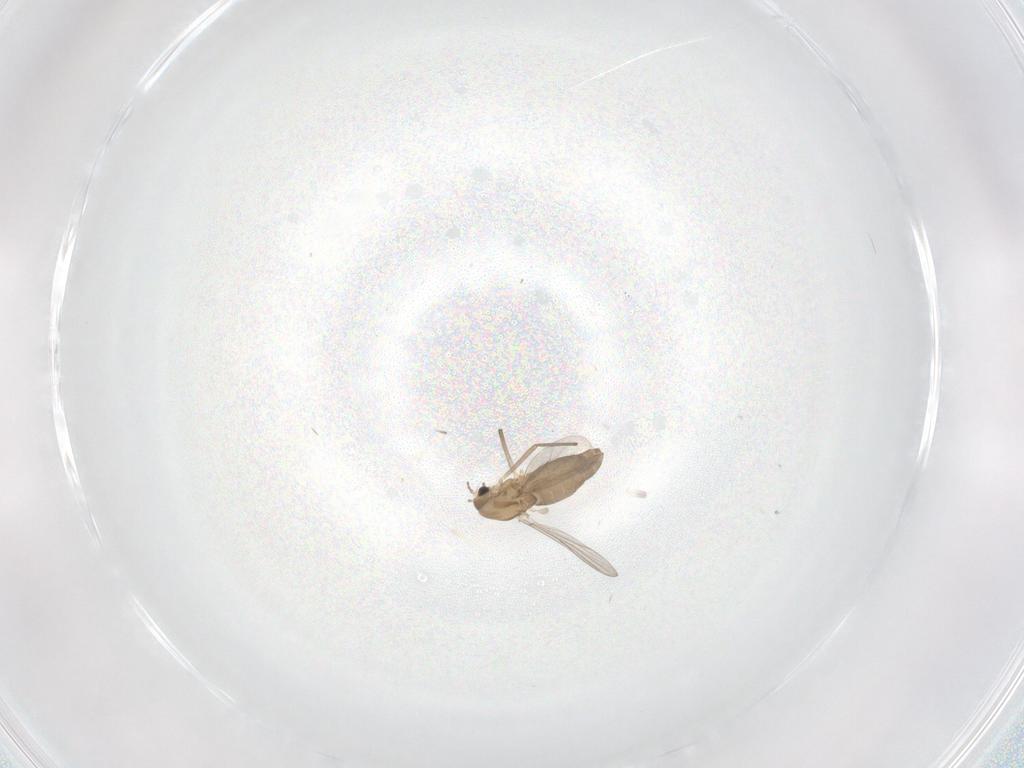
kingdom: Animalia
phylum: Arthropoda
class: Insecta
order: Diptera
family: Chironomidae
